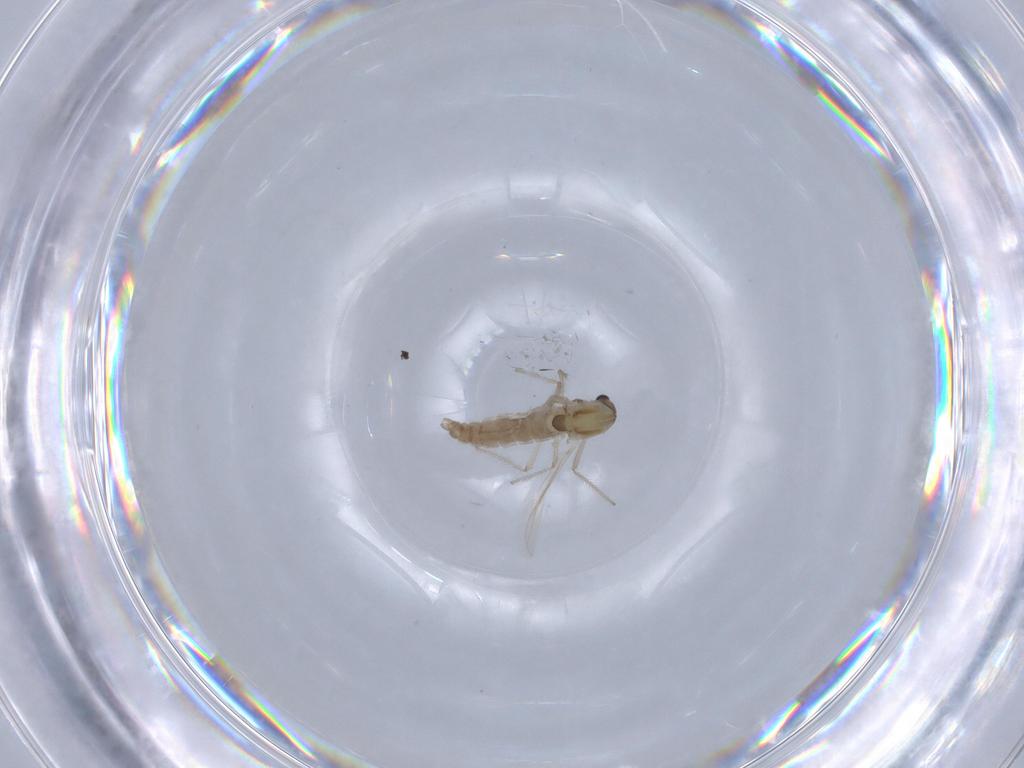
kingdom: Animalia
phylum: Arthropoda
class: Insecta
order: Diptera
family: Chironomidae
